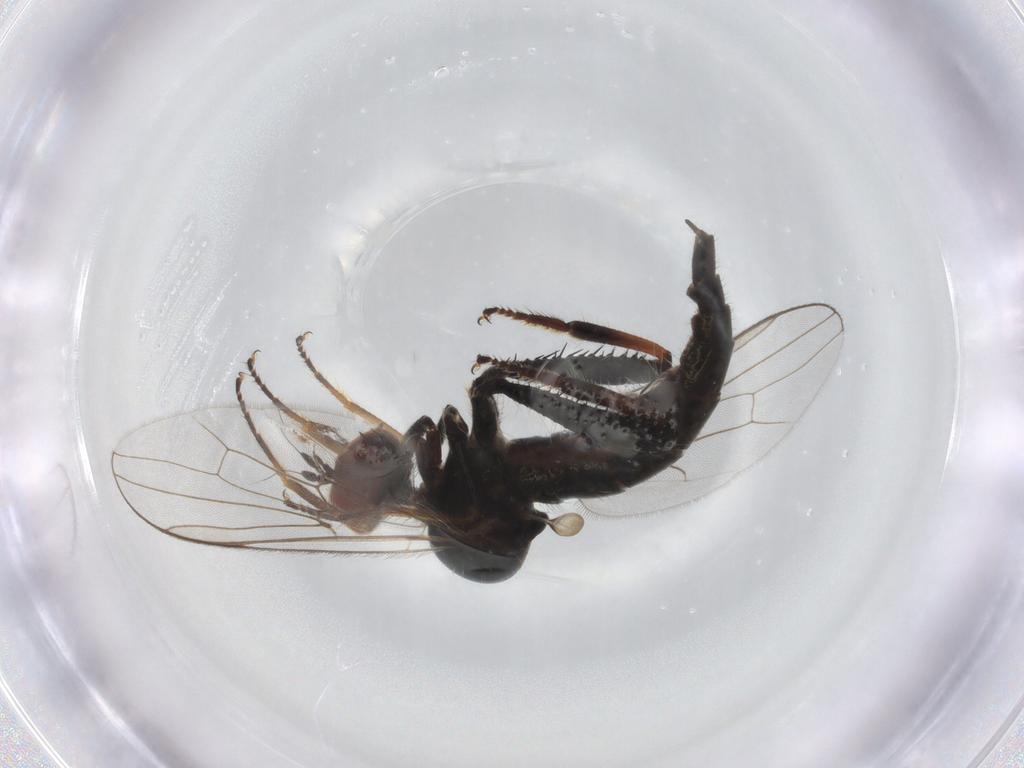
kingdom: Animalia
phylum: Arthropoda
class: Insecta
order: Diptera
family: Hybotidae
